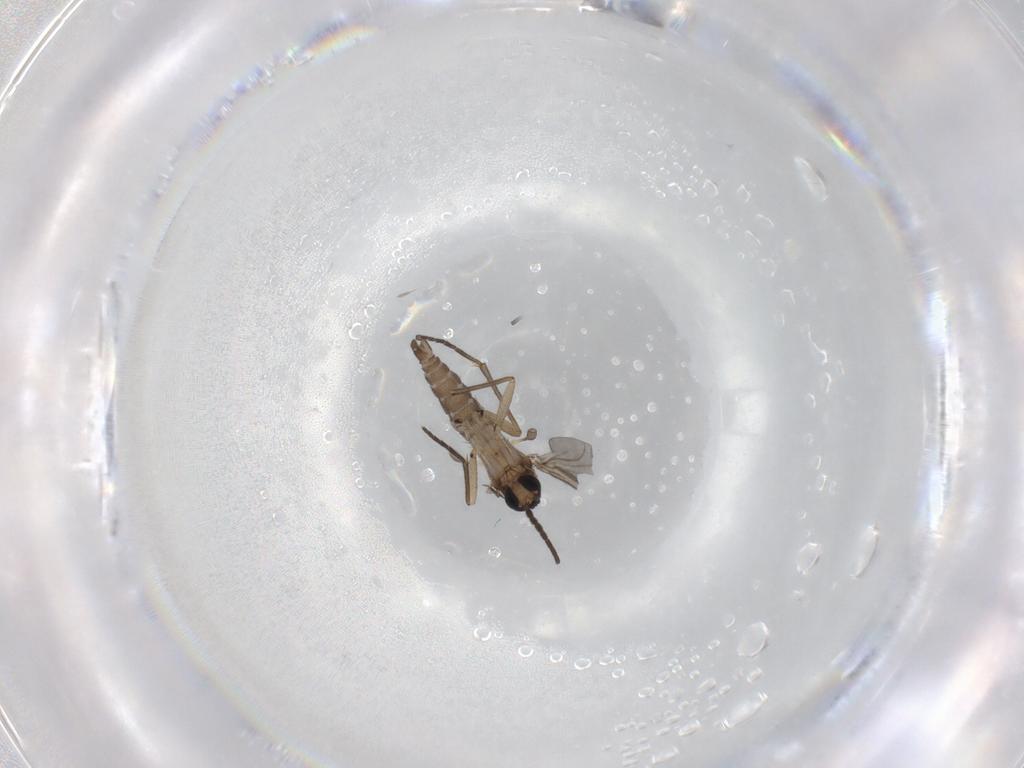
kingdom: Animalia
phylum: Arthropoda
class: Insecta
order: Diptera
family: Sciaridae
